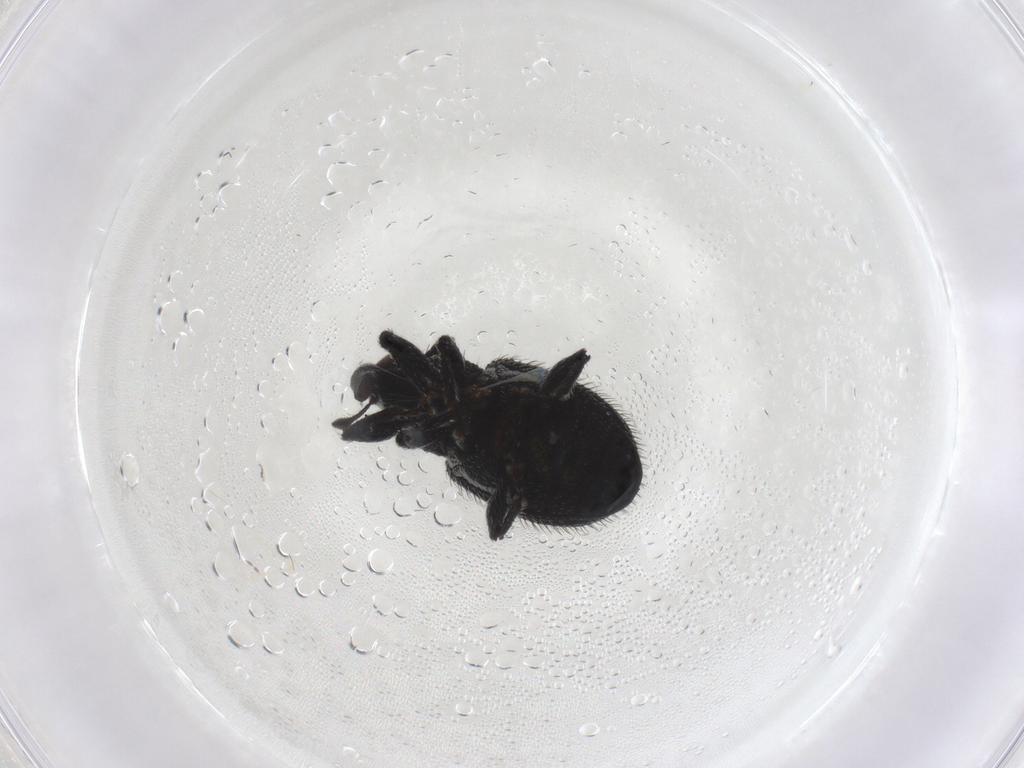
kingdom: Animalia
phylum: Arthropoda
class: Insecta
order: Coleoptera
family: Curculionidae
